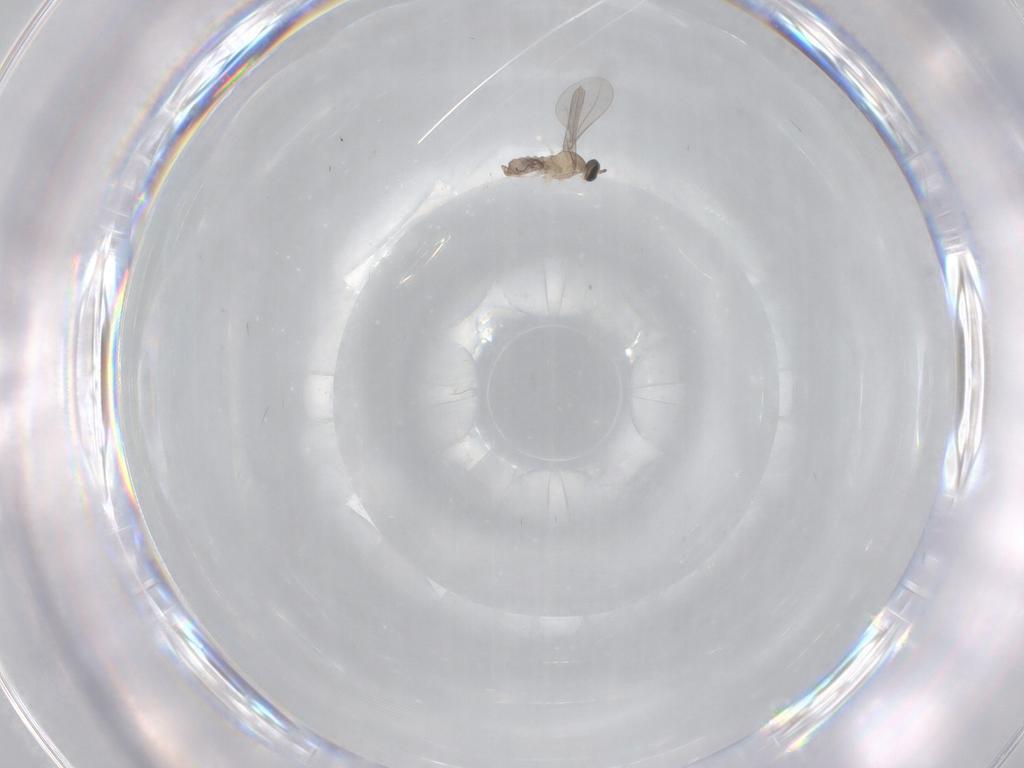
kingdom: Animalia
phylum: Arthropoda
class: Insecta
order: Diptera
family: Cecidomyiidae
